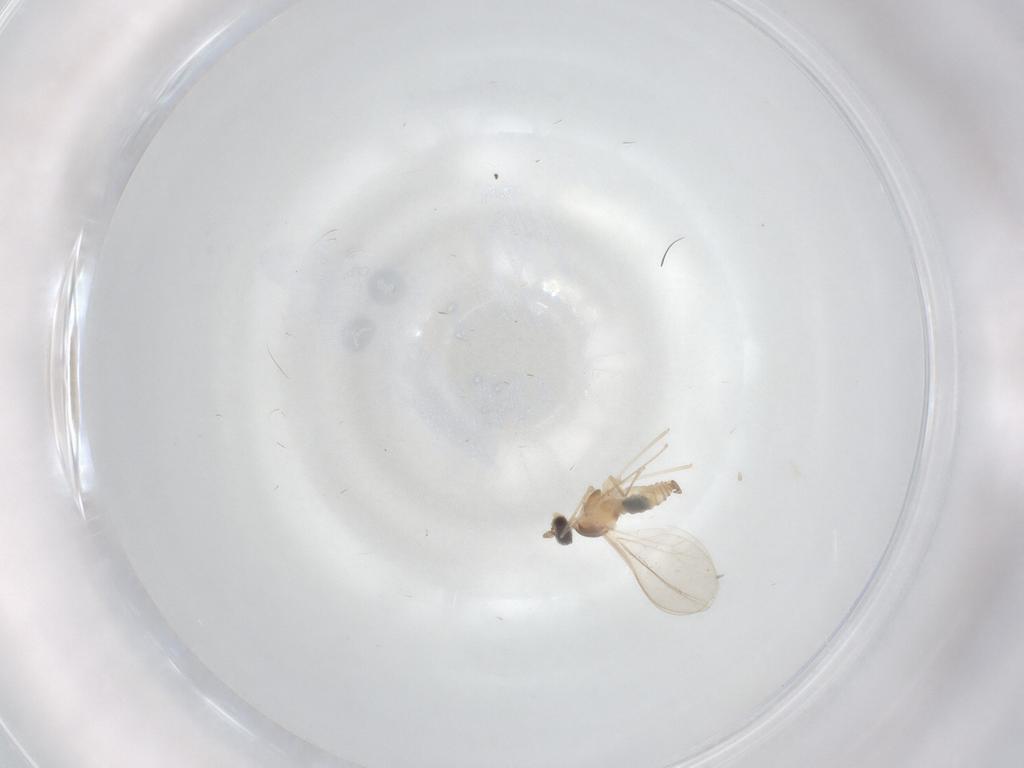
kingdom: Animalia
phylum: Arthropoda
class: Insecta
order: Diptera
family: Cecidomyiidae
